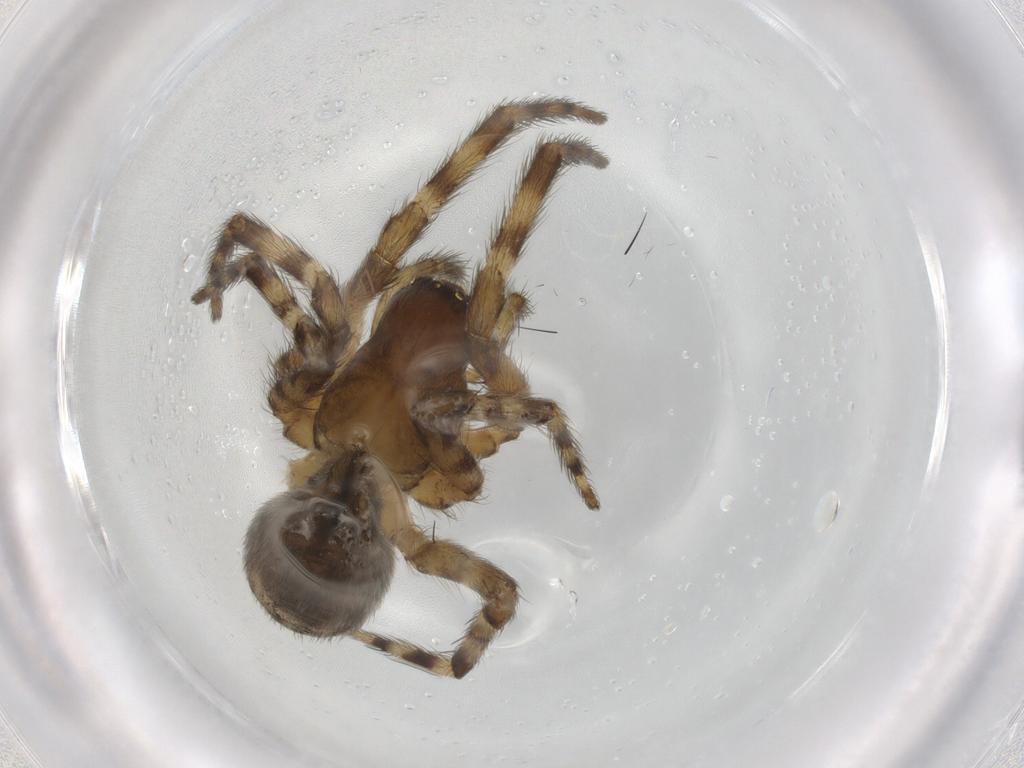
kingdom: Animalia
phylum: Arthropoda
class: Arachnida
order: Araneae
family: Zodariidae
